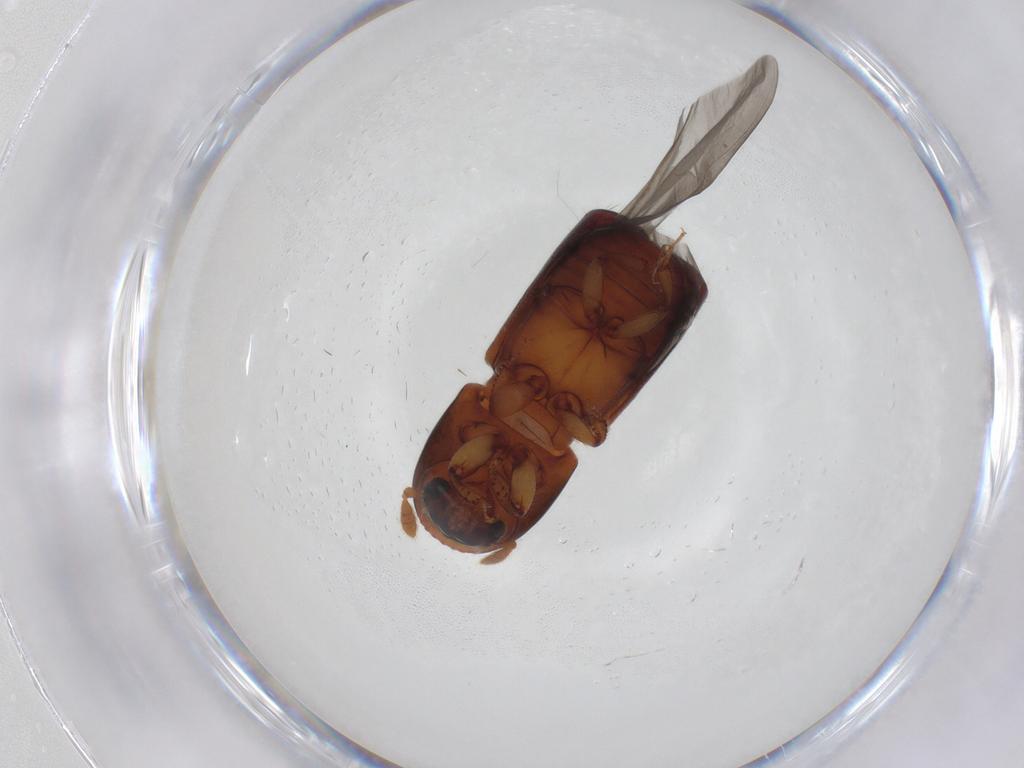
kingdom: Animalia
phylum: Arthropoda
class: Insecta
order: Coleoptera
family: Curculionidae
